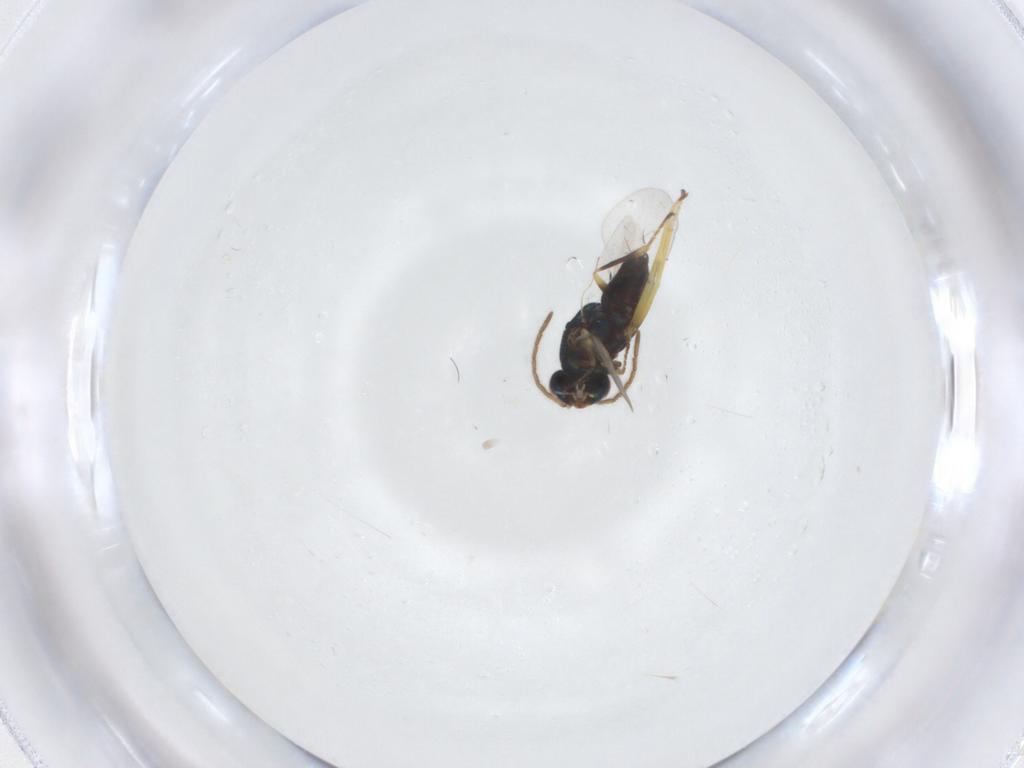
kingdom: Animalia
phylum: Arthropoda
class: Insecta
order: Hymenoptera
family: Encyrtidae
